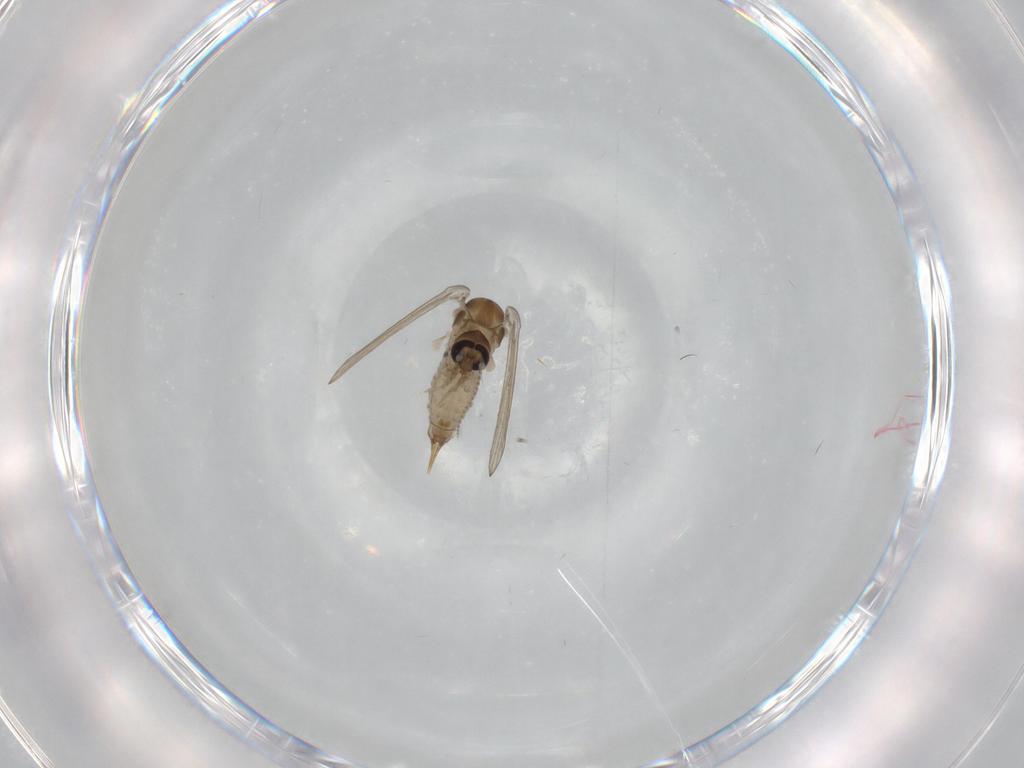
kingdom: Animalia
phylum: Arthropoda
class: Insecta
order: Diptera
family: Psychodidae
